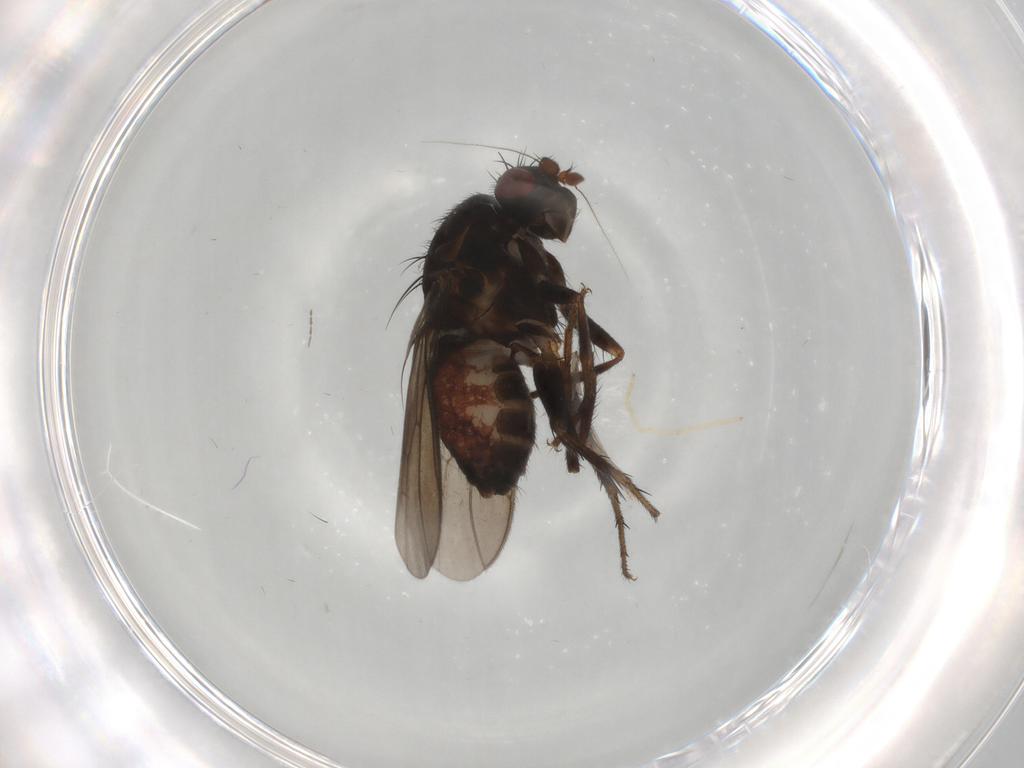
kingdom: Animalia
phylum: Arthropoda
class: Insecta
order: Diptera
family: Sphaeroceridae
